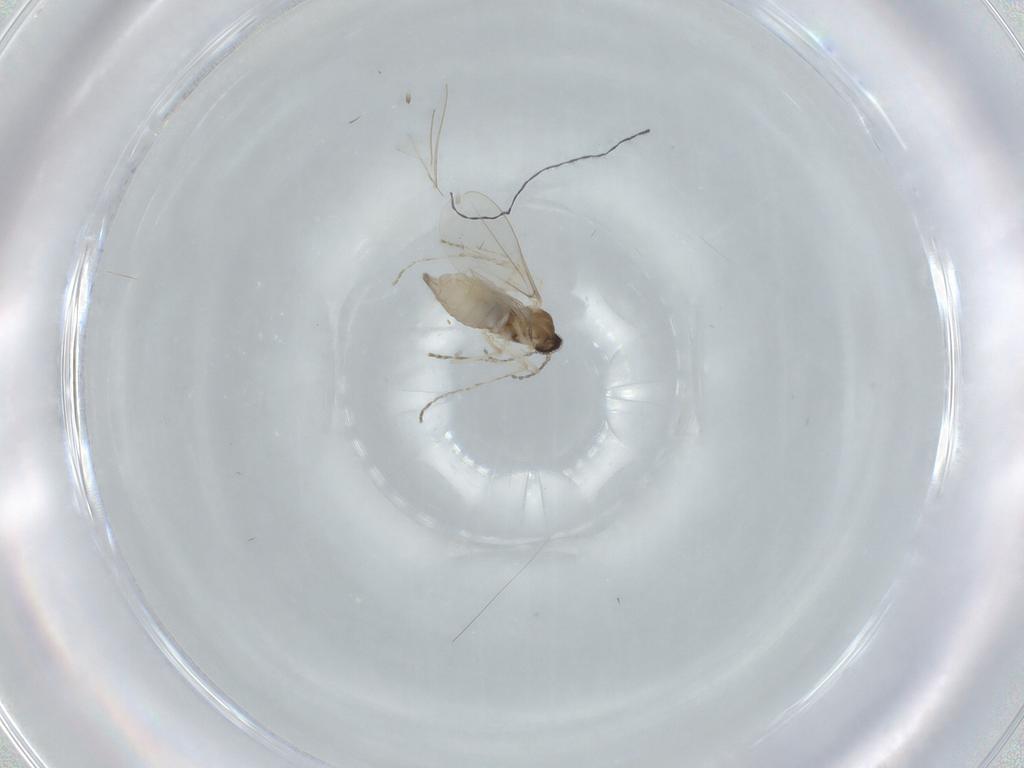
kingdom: Animalia
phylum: Arthropoda
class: Insecta
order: Diptera
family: Cecidomyiidae
